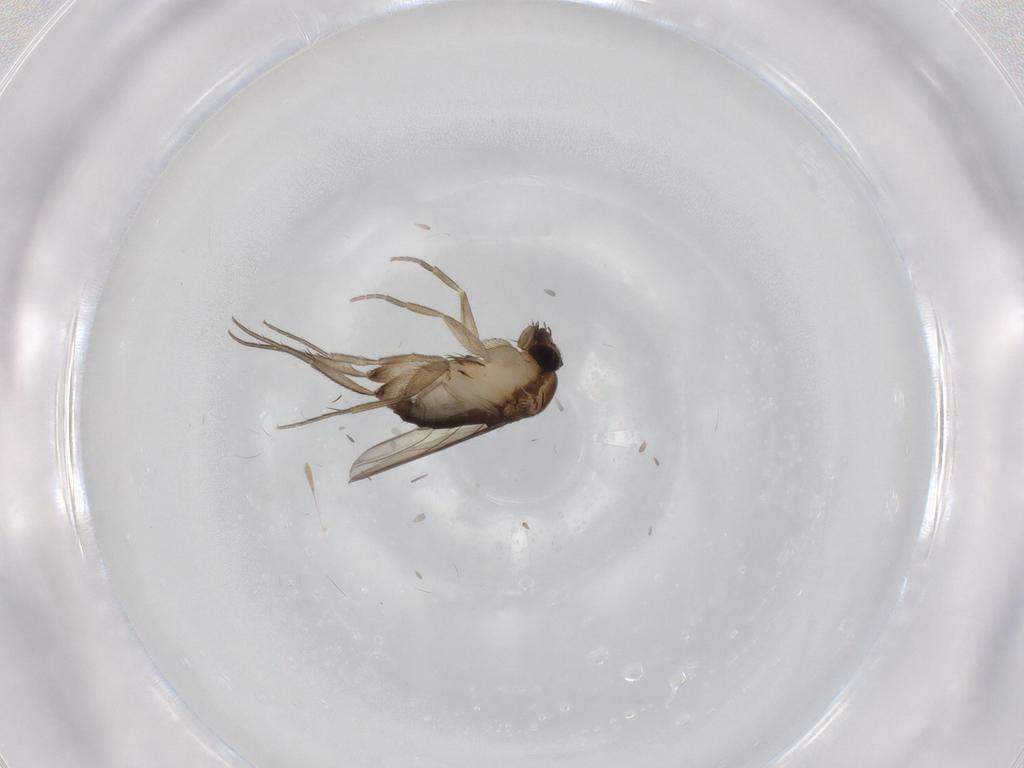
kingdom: Animalia
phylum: Arthropoda
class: Insecta
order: Diptera
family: Phoridae
